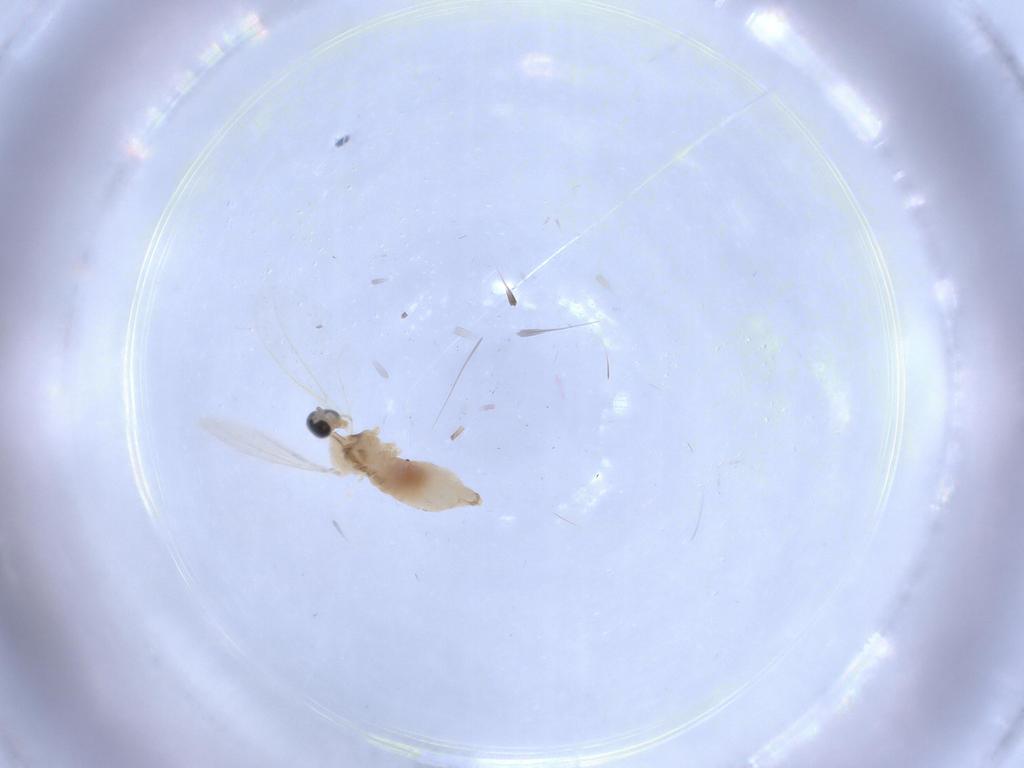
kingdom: Animalia
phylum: Arthropoda
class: Insecta
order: Diptera
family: Cecidomyiidae
